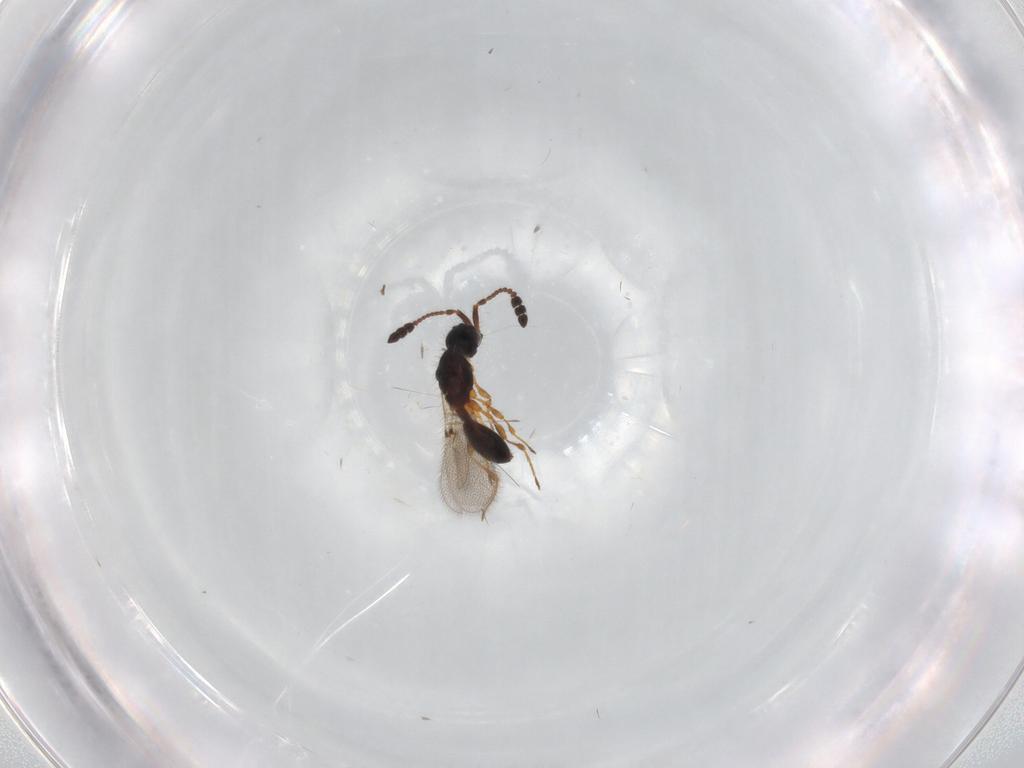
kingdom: Animalia
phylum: Arthropoda
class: Insecta
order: Hymenoptera
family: Diapriidae
